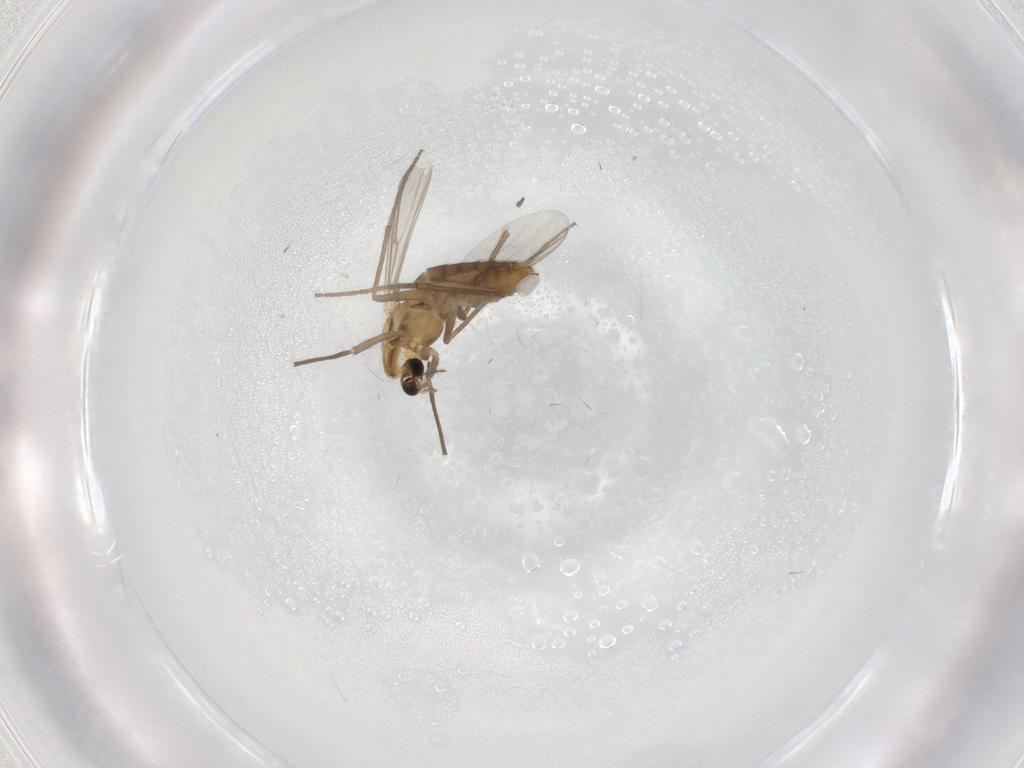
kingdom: Animalia
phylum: Arthropoda
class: Insecta
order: Diptera
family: Chironomidae
